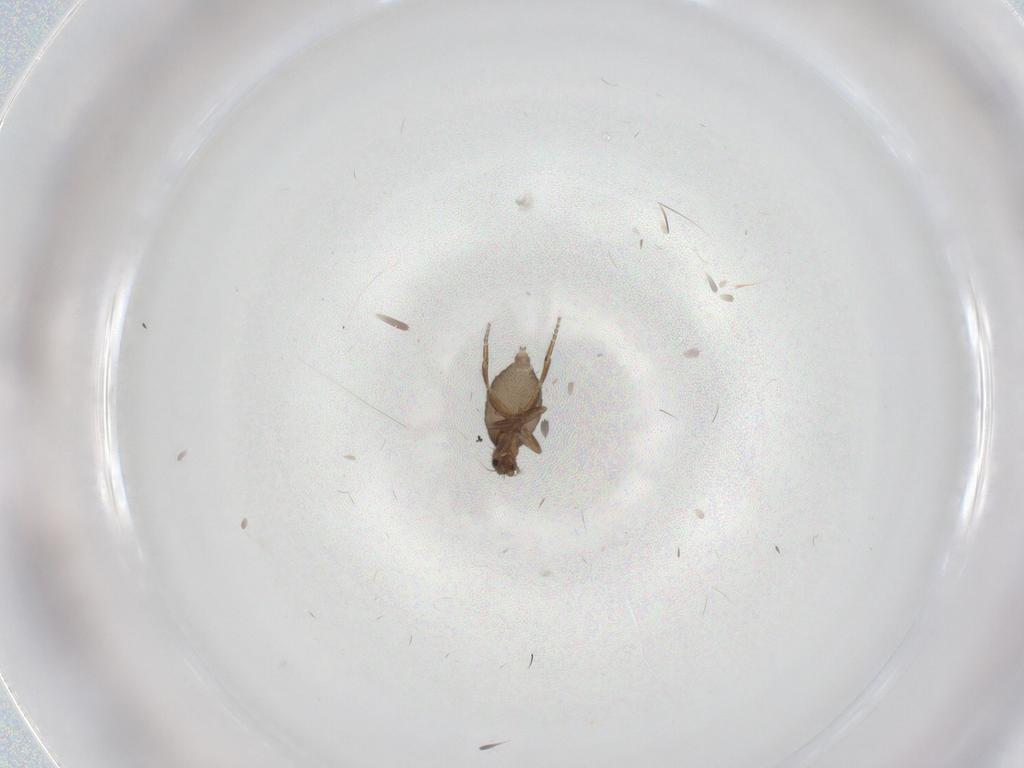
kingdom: Animalia
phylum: Arthropoda
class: Insecta
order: Diptera
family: Phoridae
